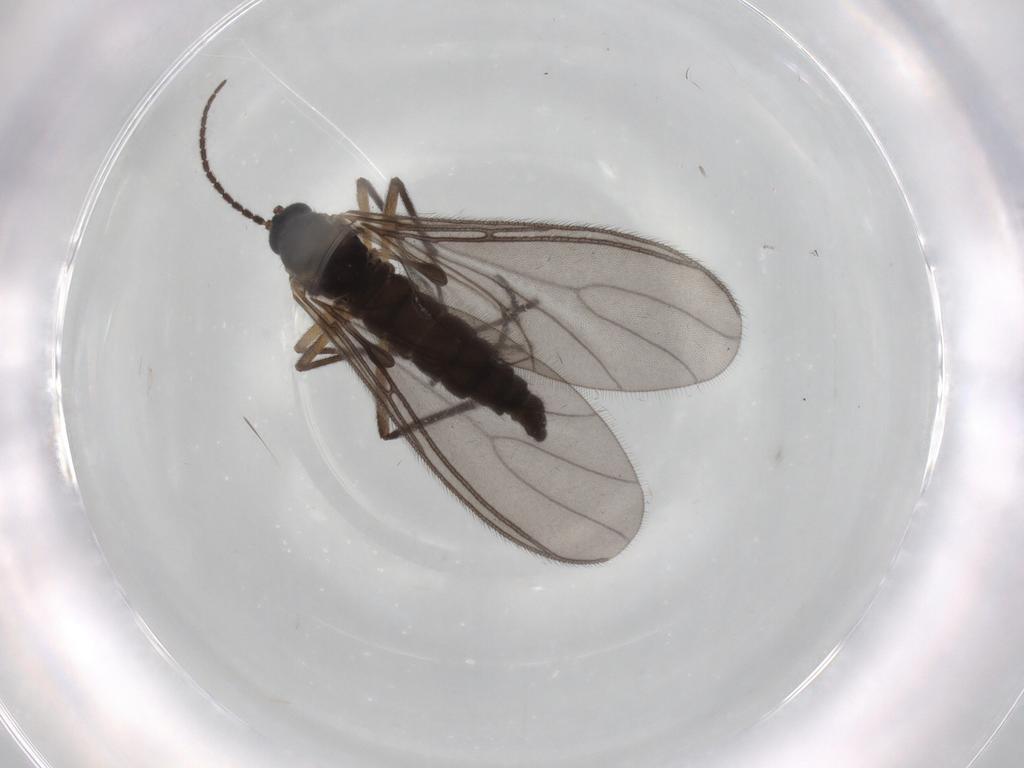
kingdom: Animalia
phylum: Arthropoda
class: Insecta
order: Diptera
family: Sciaridae
